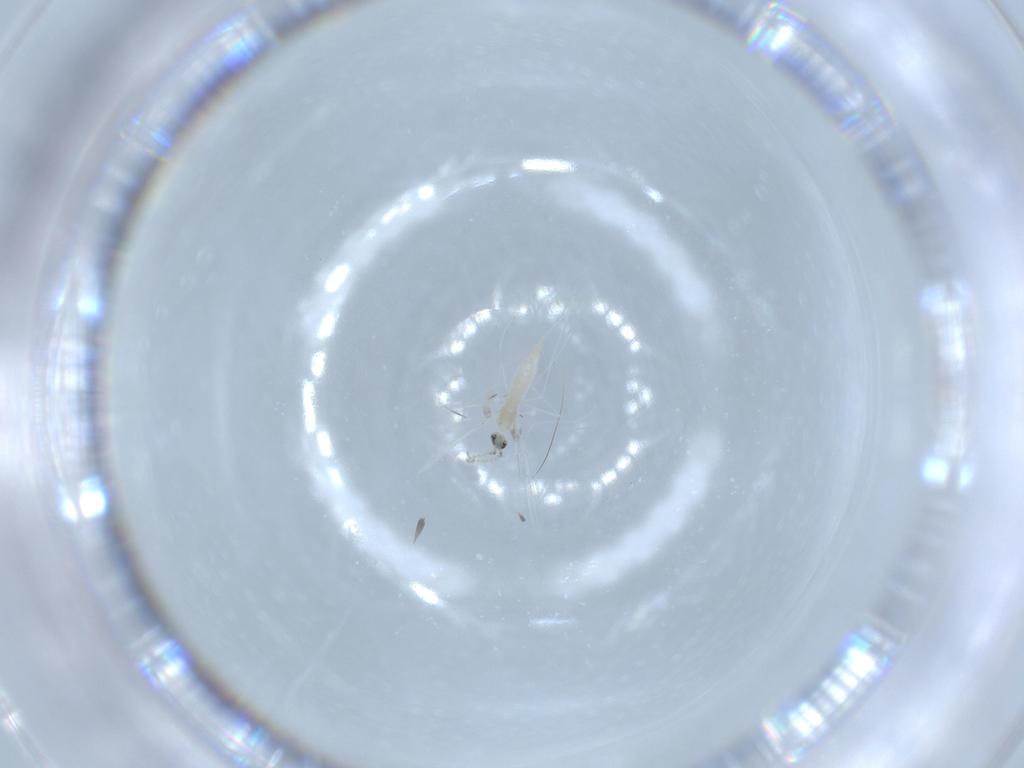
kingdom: Animalia
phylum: Arthropoda
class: Insecta
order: Diptera
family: Cecidomyiidae
